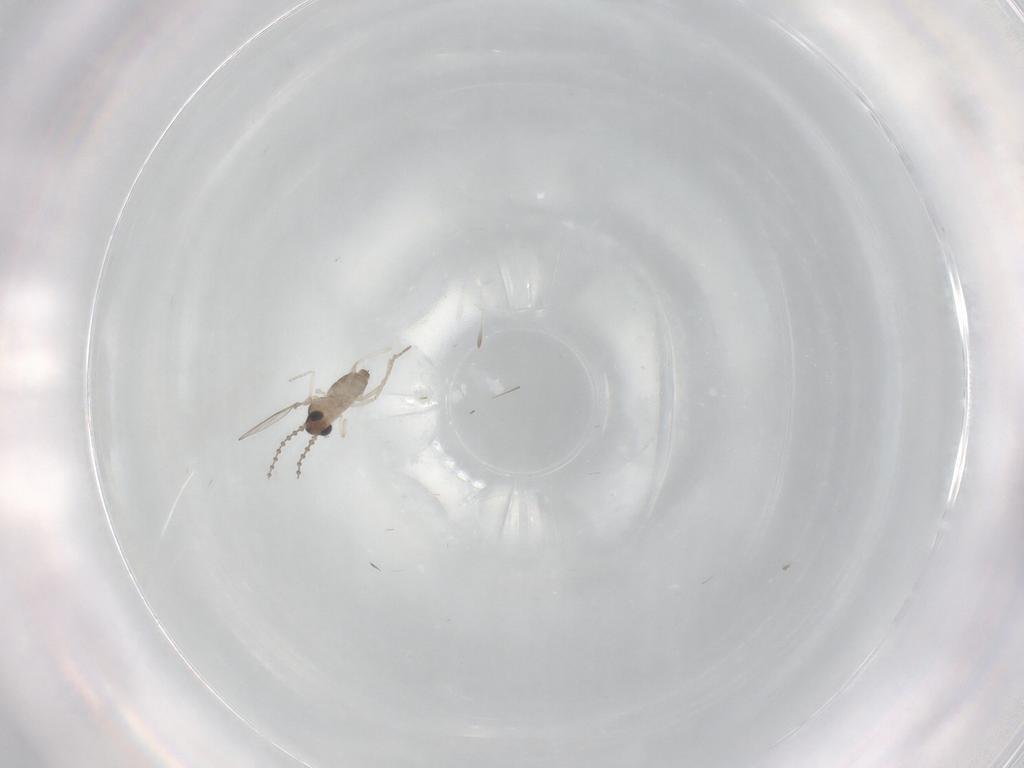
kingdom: Animalia
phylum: Arthropoda
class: Insecta
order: Diptera
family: Cecidomyiidae
